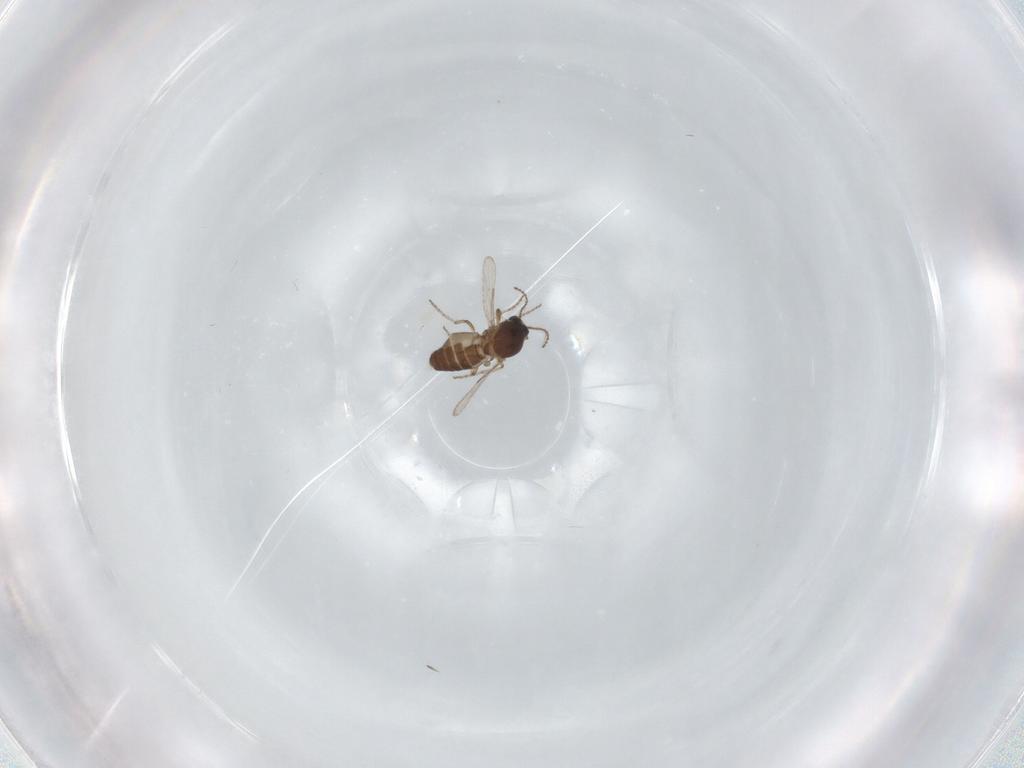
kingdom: Animalia
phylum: Arthropoda
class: Insecta
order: Diptera
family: Ceratopogonidae
